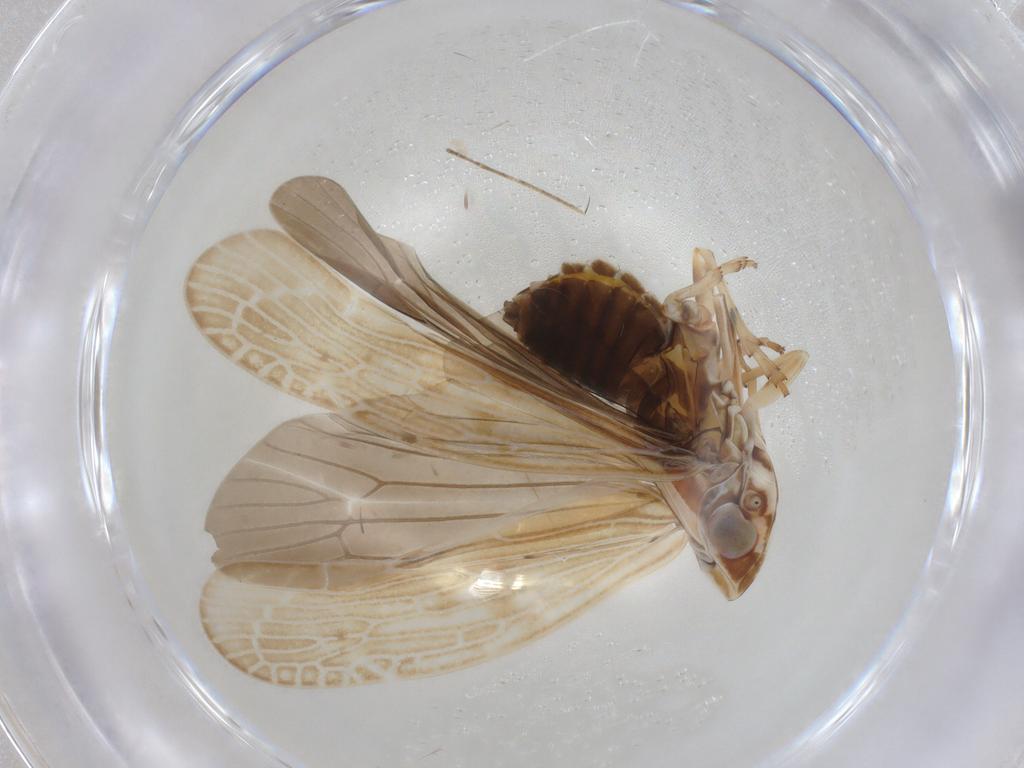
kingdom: Animalia
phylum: Arthropoda
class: Insecta
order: Hemiptera
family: Achilidae
